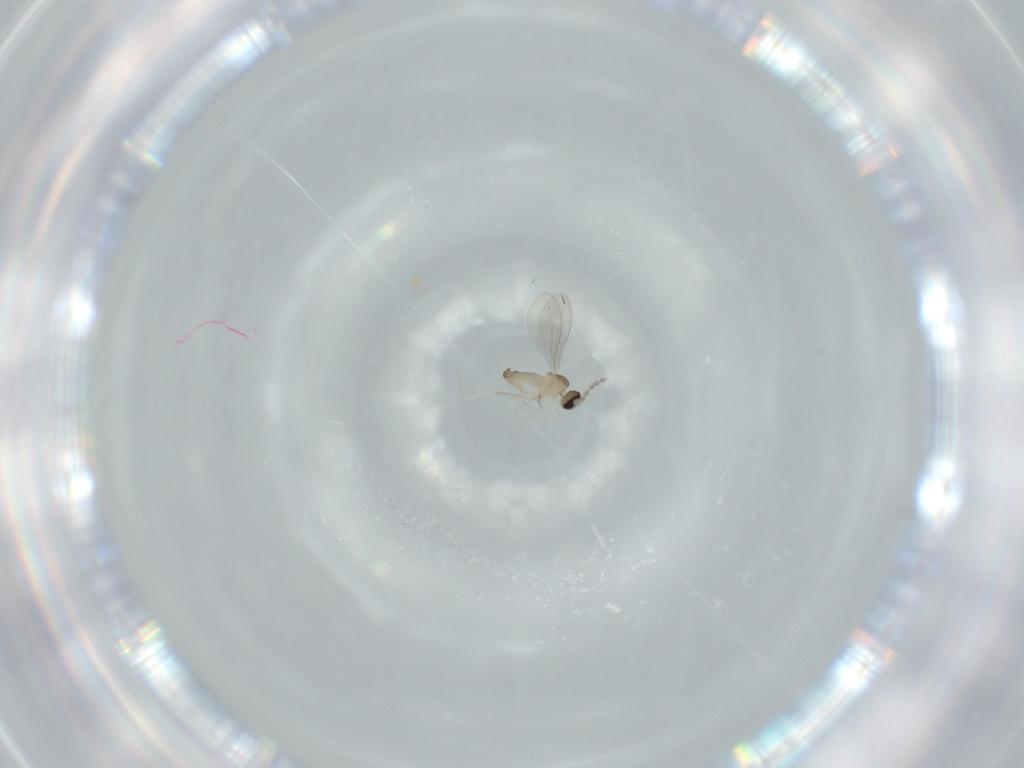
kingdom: Animalia
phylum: Arthropoda
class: Insecta
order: Diptera
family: Cecidomyiidae
